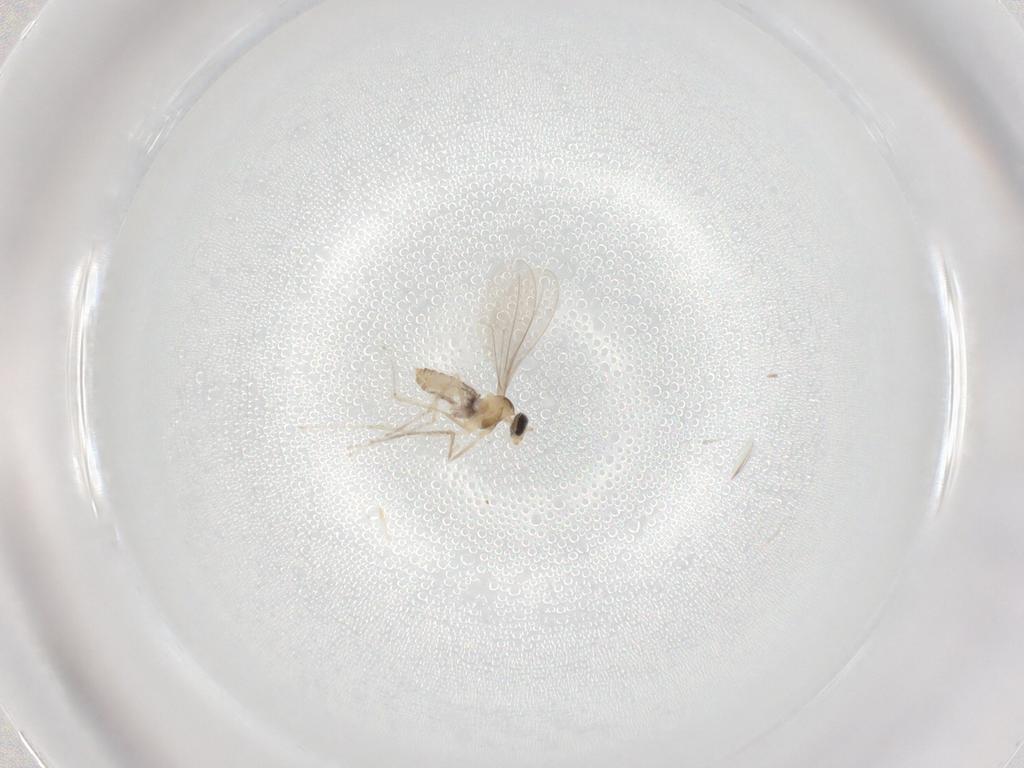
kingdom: Animalia
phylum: Arthropoda
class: Insecta
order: Diptera
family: Cecidomyiidae
